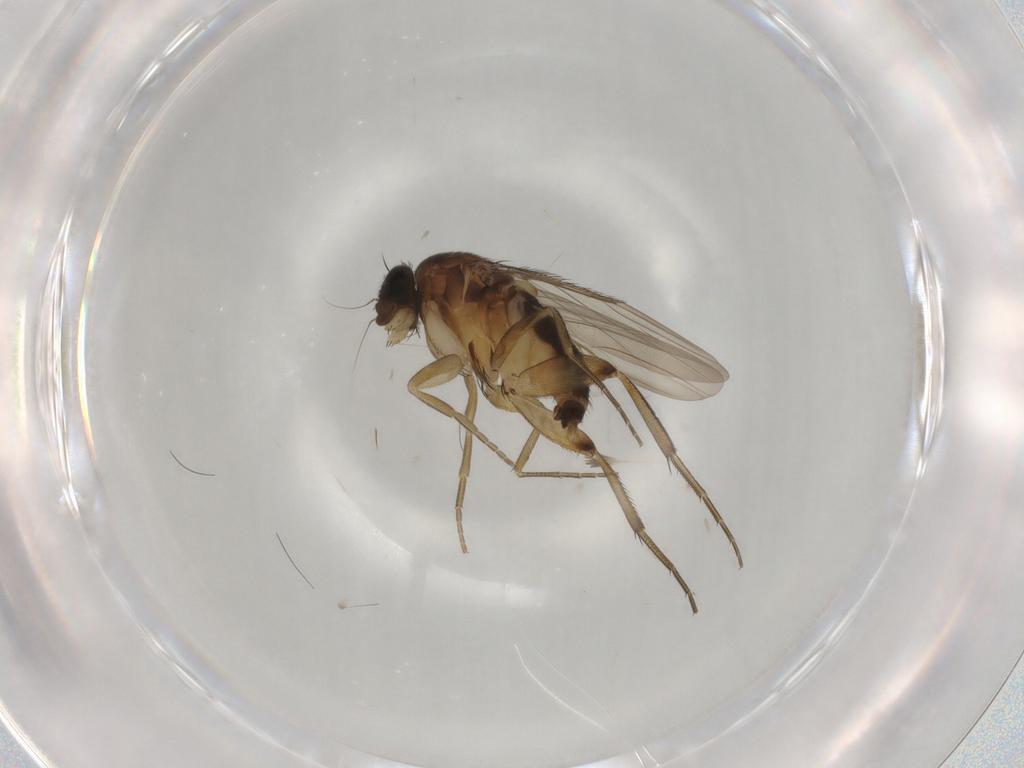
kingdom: Animalia
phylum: Arthropoda
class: Insecta
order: Diptera
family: Phoridae
